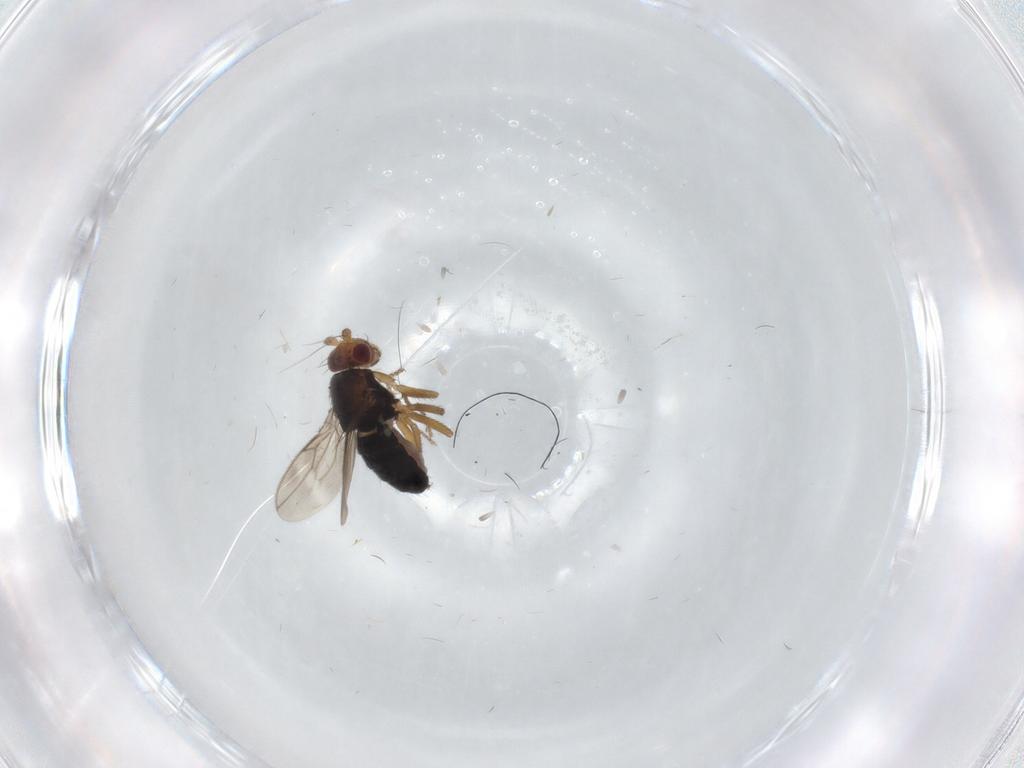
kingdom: Animalia
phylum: Arthropoda
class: Insecta
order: Diptera
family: Sphaeroceridae
